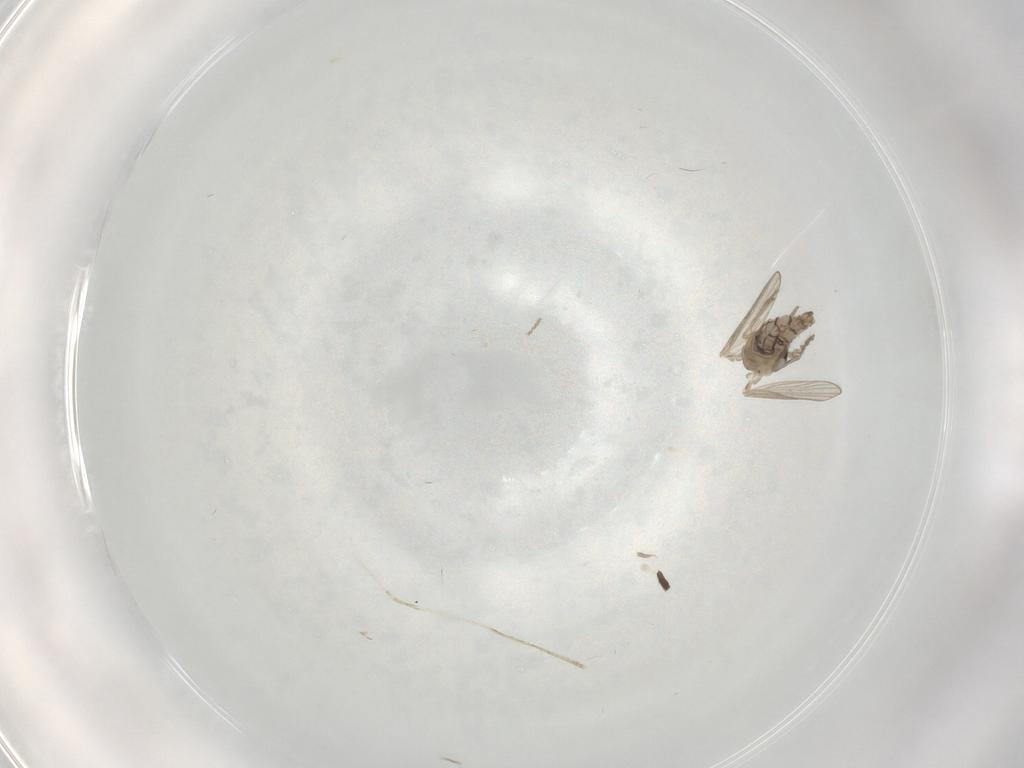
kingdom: Animalia
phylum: Arthropoda
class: Insecta
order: Diptera
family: Psychodidae
